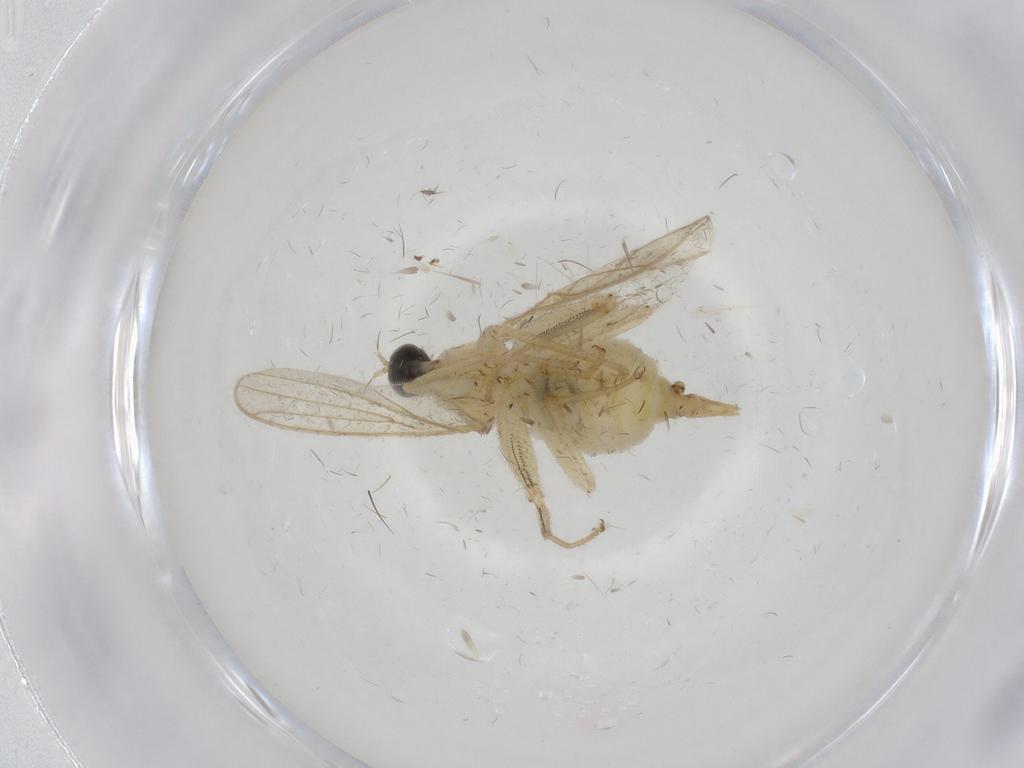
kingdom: Animalia
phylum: Arthropoda
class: Insecta
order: Diptera
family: Hybotidae
